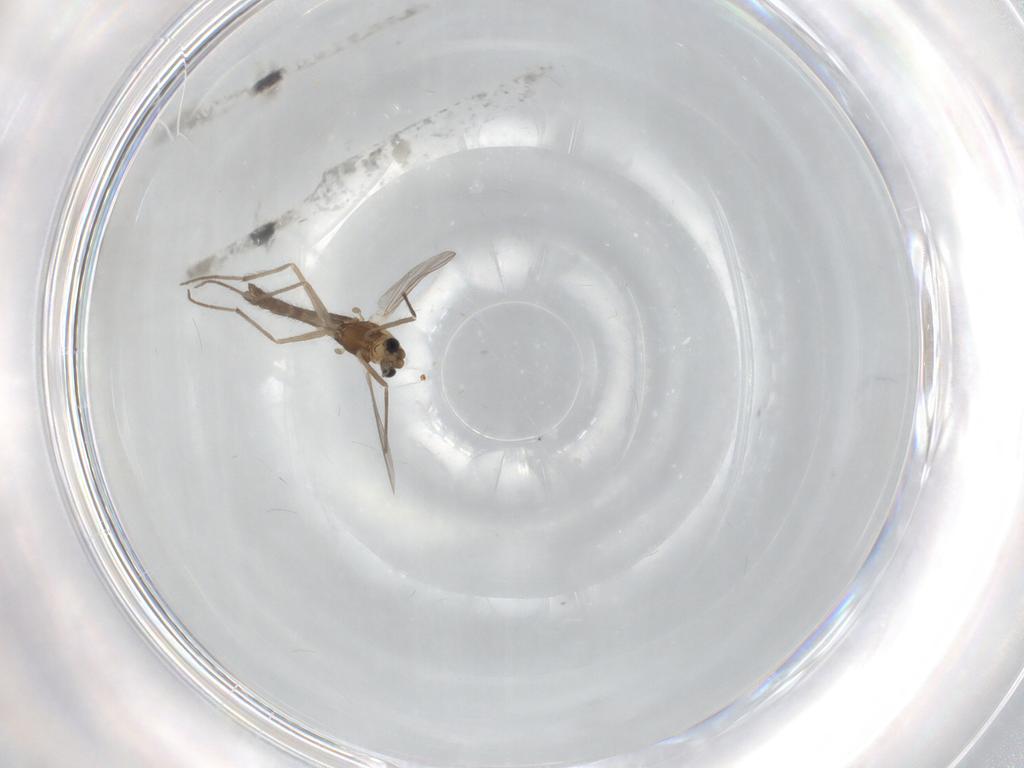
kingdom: Animalia
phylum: Arthropoda
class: Insecta
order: Diptera
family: Chironomidae
